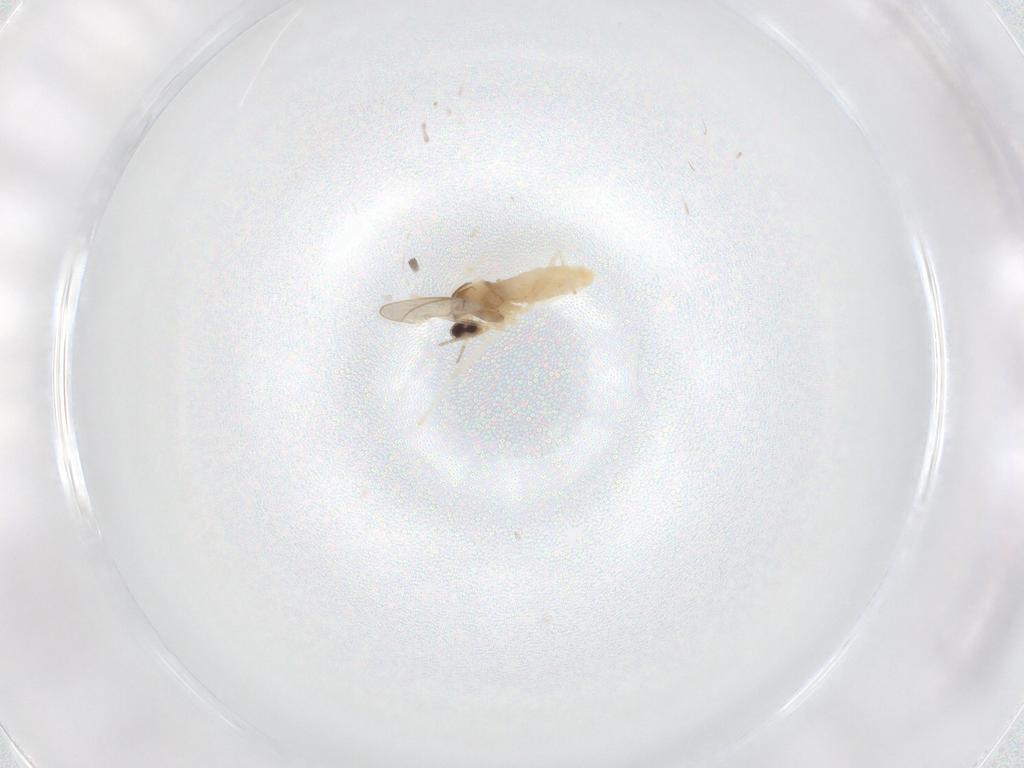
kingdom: Animalia
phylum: Arthropoda
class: Insecta
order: Diptera
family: Cecidomyiidae
